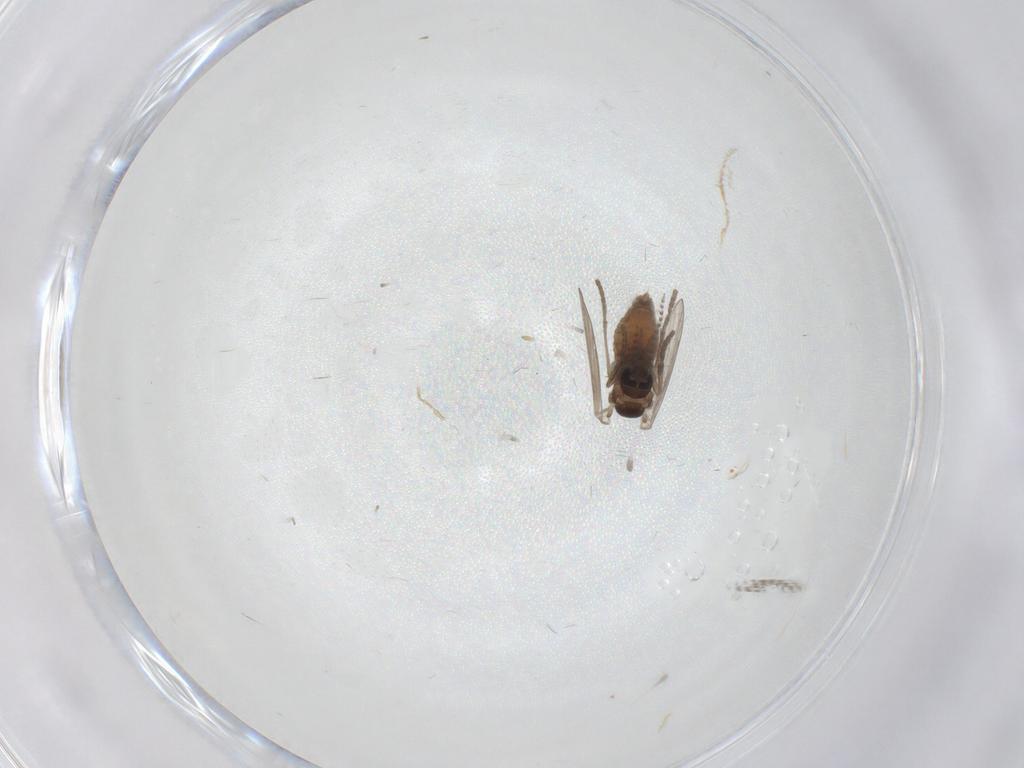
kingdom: Animalia
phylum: Arthropoda
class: Insecta
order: Diptera
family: Psychodidae
